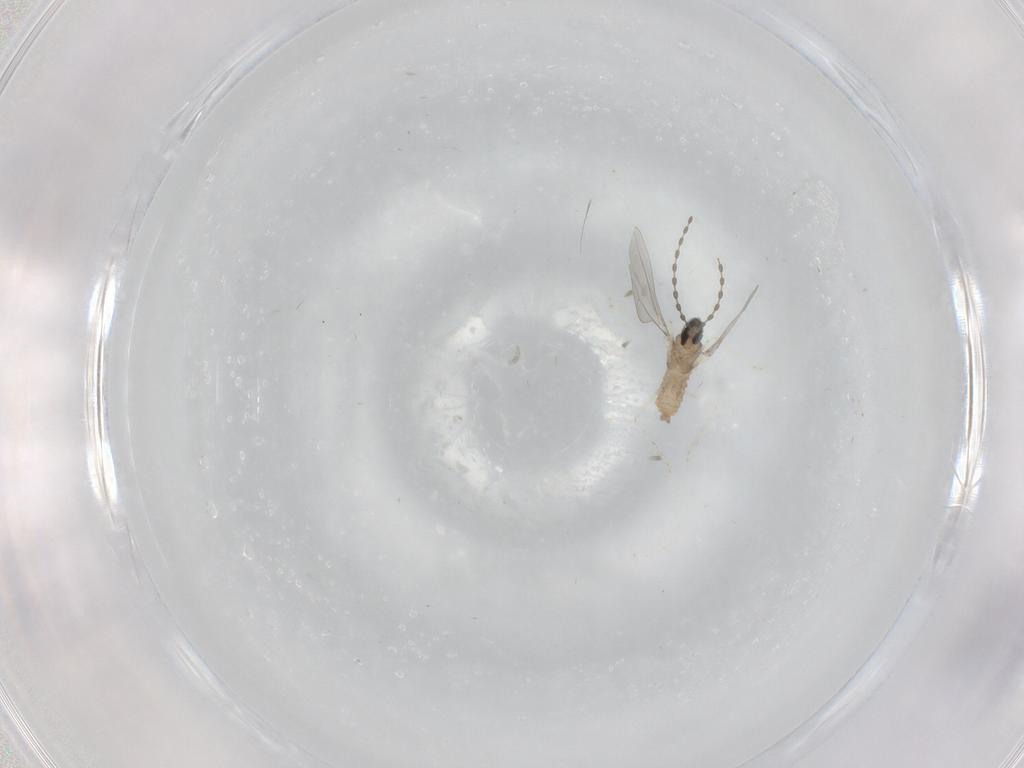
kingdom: Animalia
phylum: Arthropoda
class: Insecta
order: Diptera
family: Cecidomyiidae
